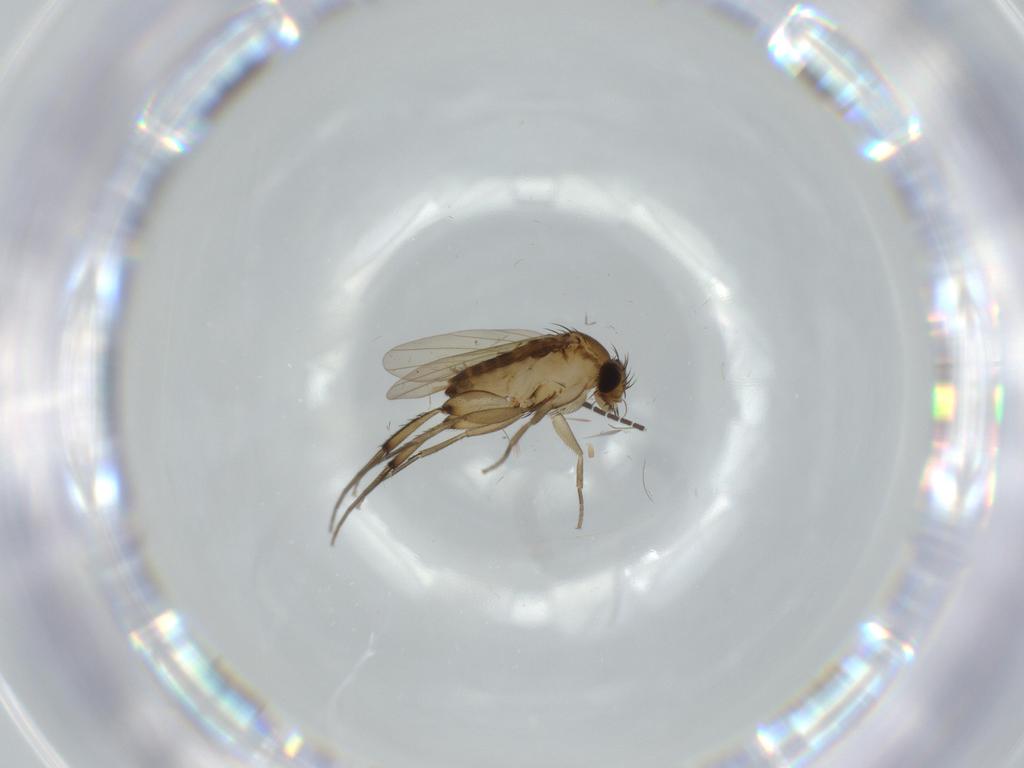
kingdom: Animalia
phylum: Arthropoda
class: Insecta
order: Diptera
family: Phoridae
